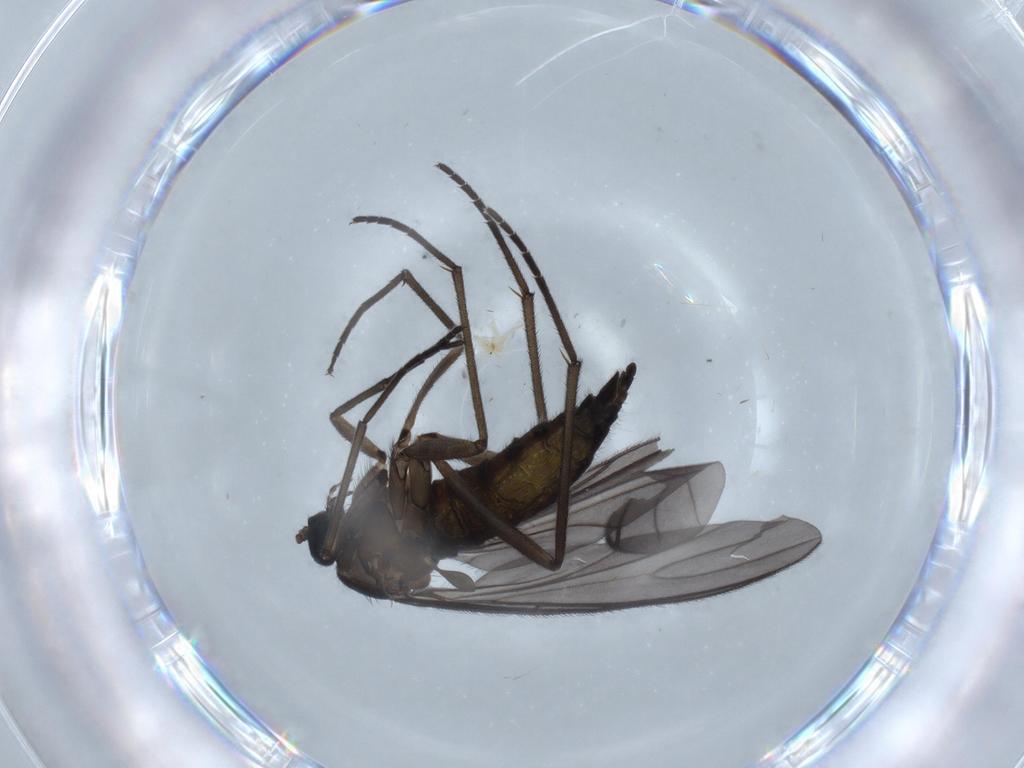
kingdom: Animalia
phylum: Arthropoda
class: Insecta
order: Diptera
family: Sciaridae
